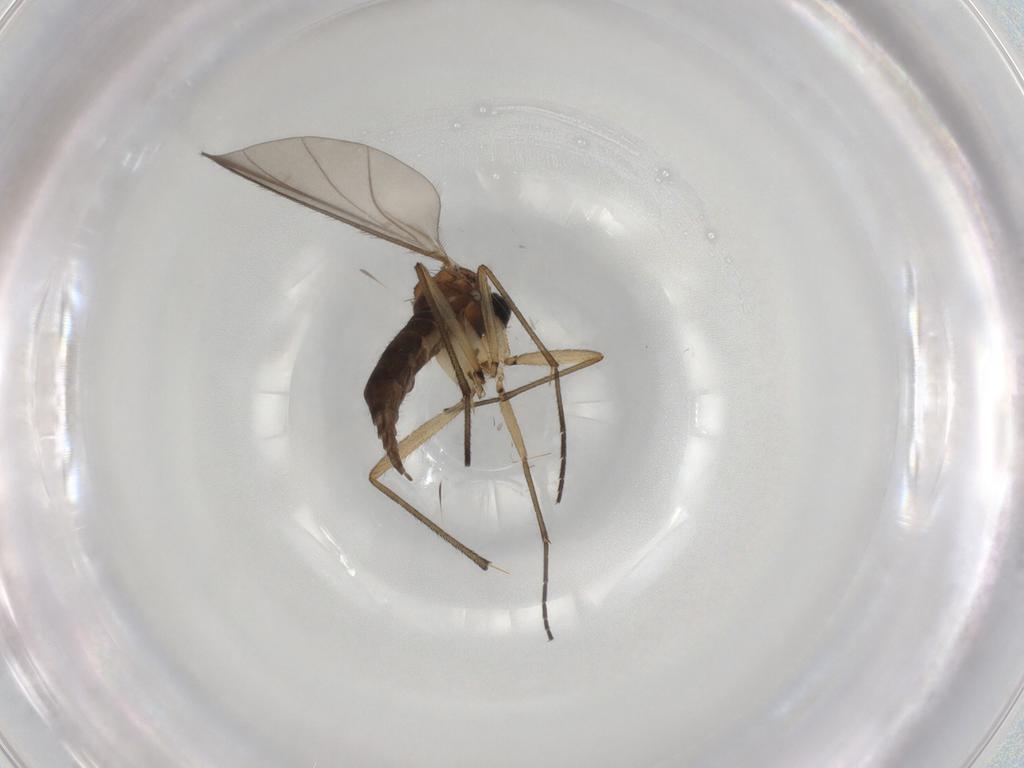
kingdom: Animalia
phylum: Arthropoda
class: Insecta
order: Diptera
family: Sciaridae
